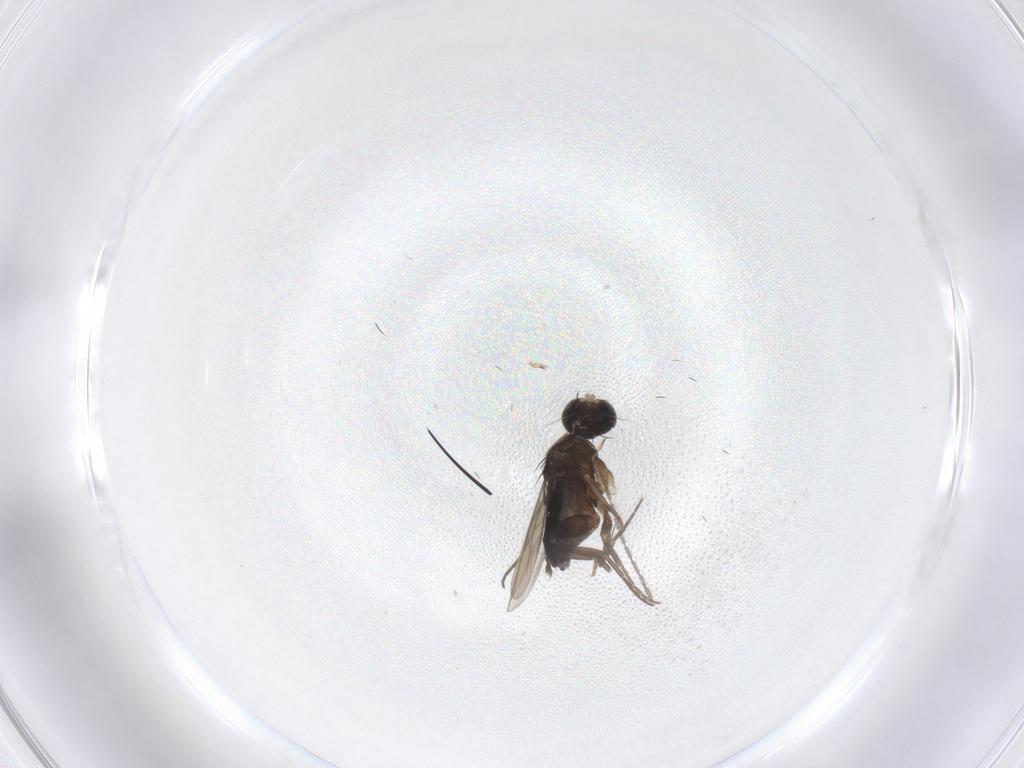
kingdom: Animalia
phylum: Arthropoda
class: Insecta
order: Diptera
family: Phoridae
